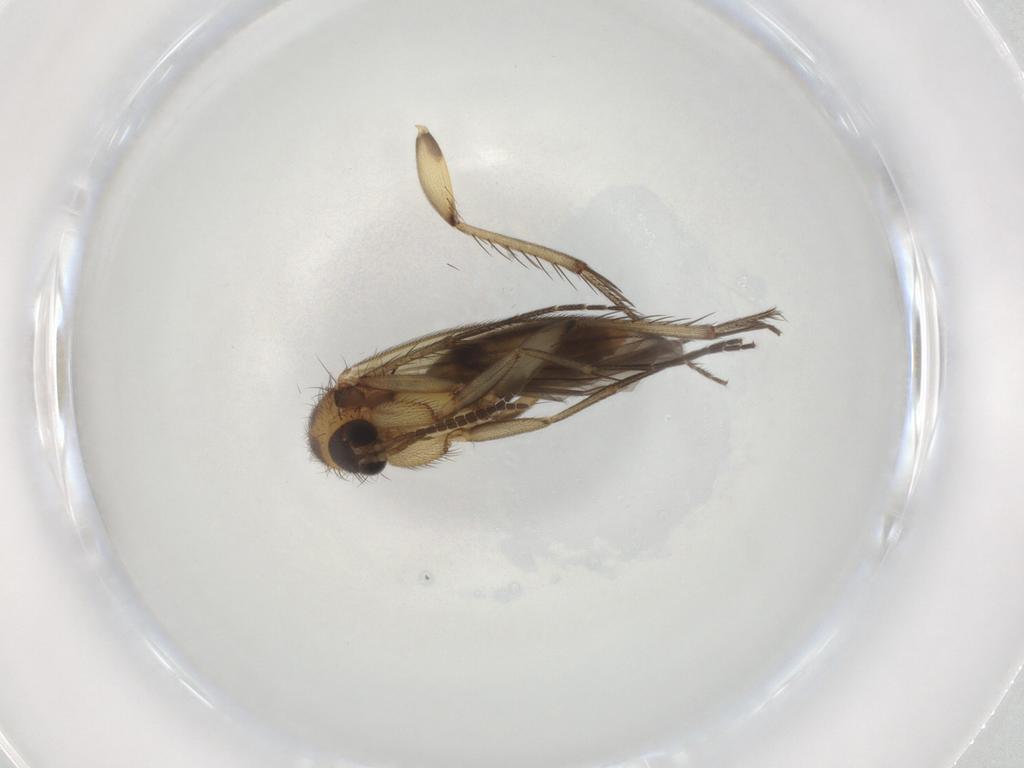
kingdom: Animalia
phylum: Arthropoda
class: Insecta
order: Diptera
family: Mycetophilidae
